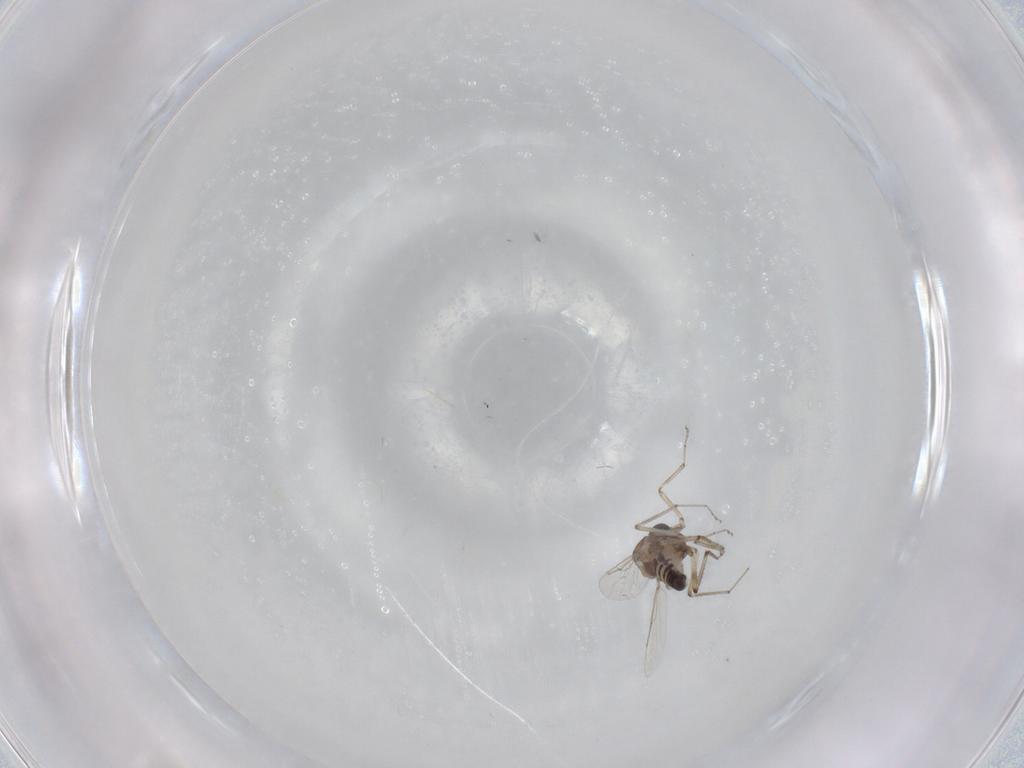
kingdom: Animalia
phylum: Arthropoda
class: Insecta
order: Diptera
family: Ceratopogonidae
